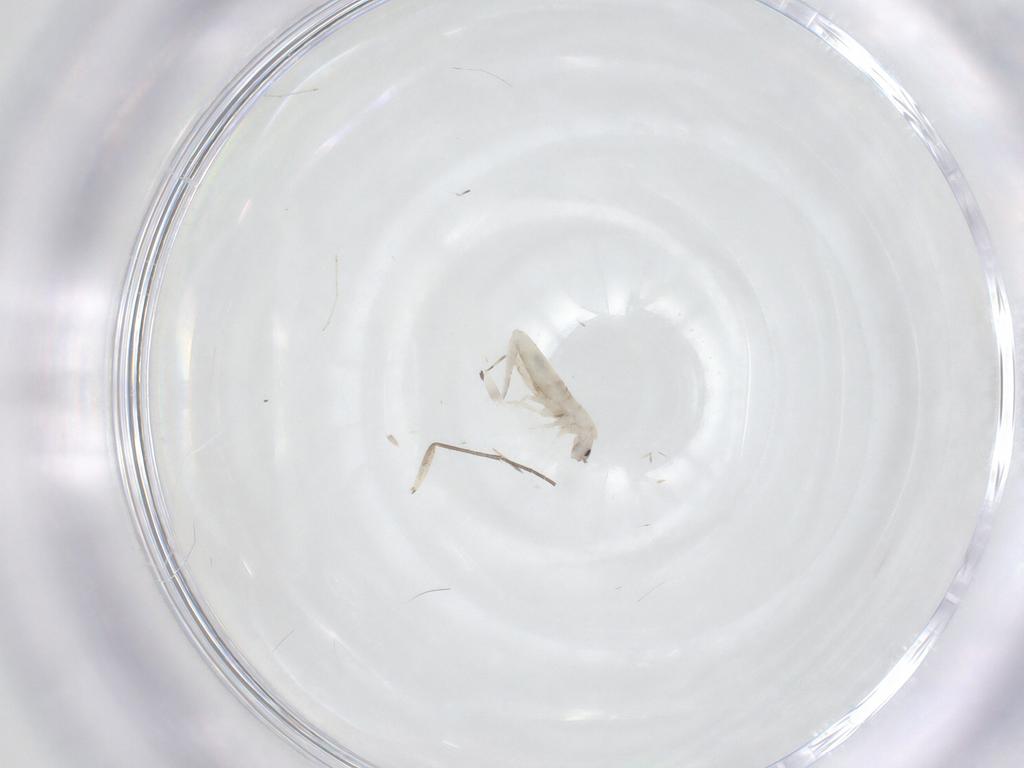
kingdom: Animalia
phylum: Arthropoda
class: Insecta
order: Diptera
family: Sciaridae
